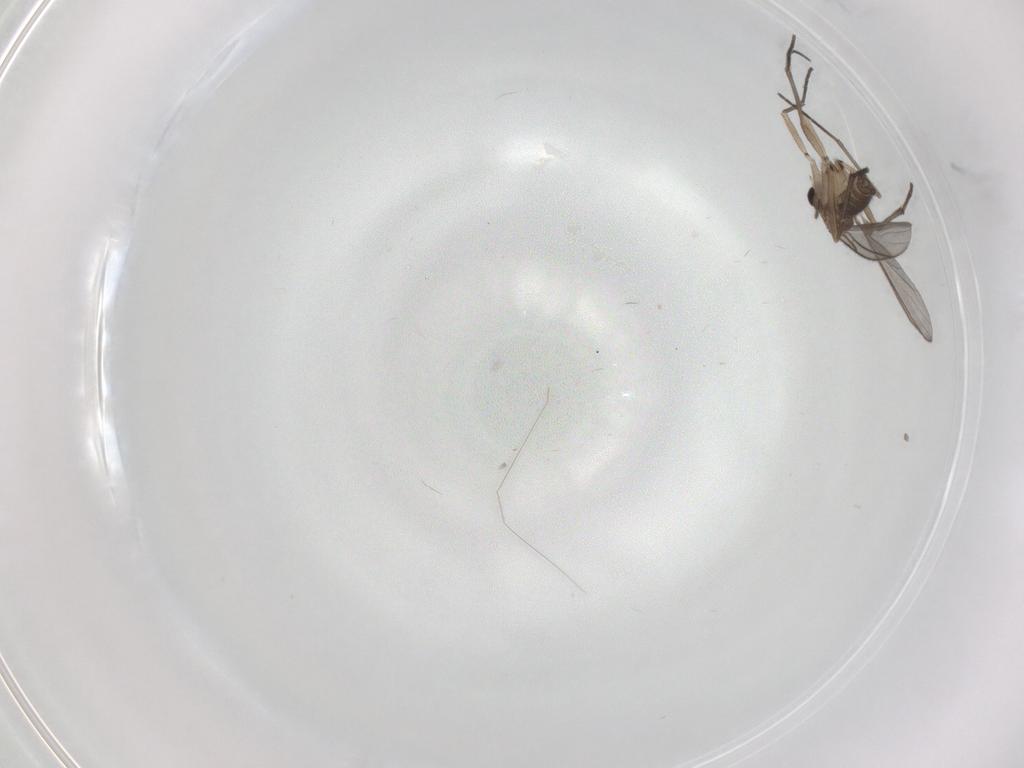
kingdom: Animalia
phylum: Arthropoda
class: Insecta
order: Diptera
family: Sciaridae
